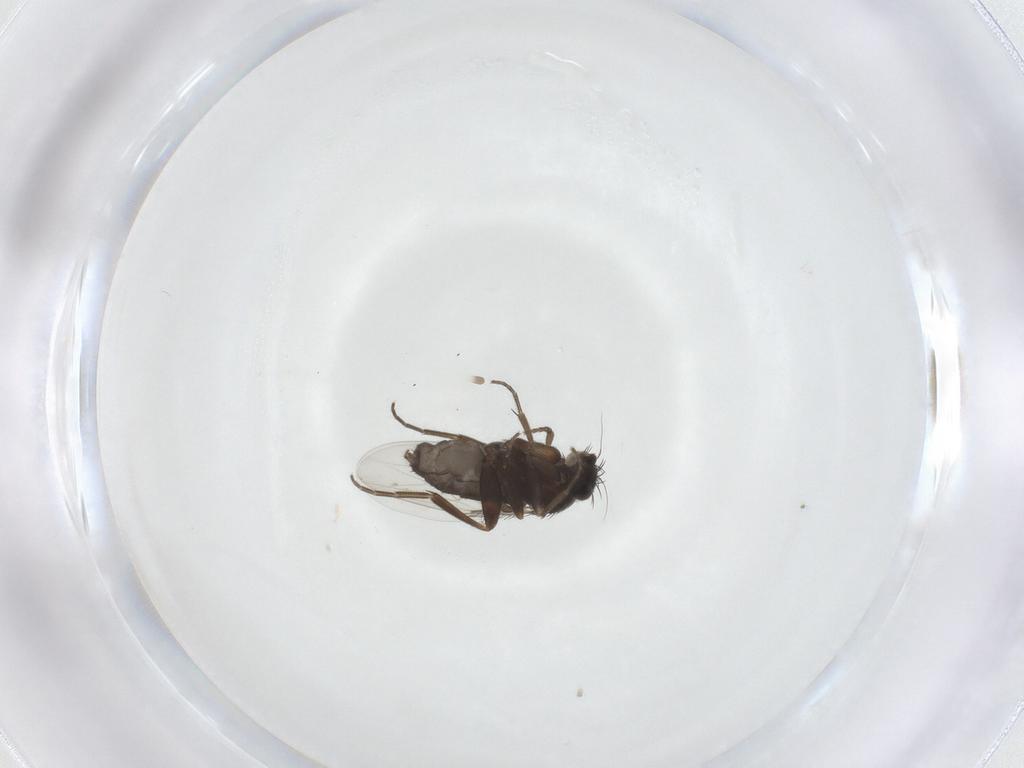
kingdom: Animalia
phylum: Arthropoda
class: Insecta
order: Diptera
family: Phoridae
